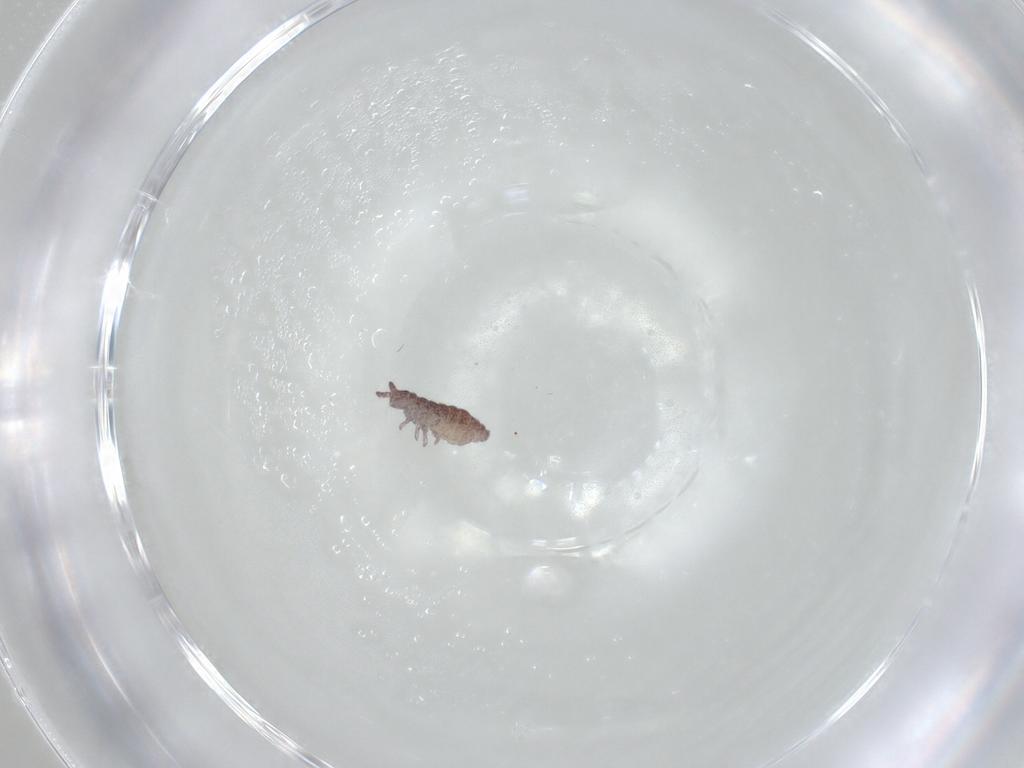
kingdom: Animalia
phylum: Arthropoda
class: Collembola
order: Poduromorpha
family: Hypogastruridae
